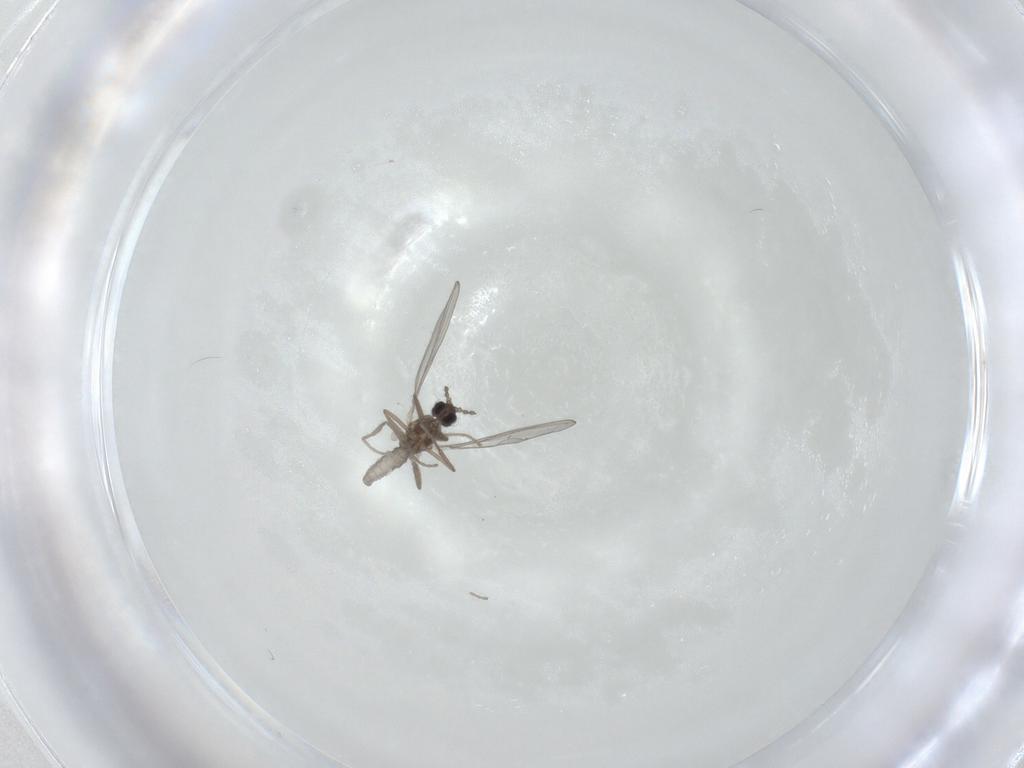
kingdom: Animalia
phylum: Arthropoda
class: Insecta
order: Diptera
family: Cecidomyiidae
